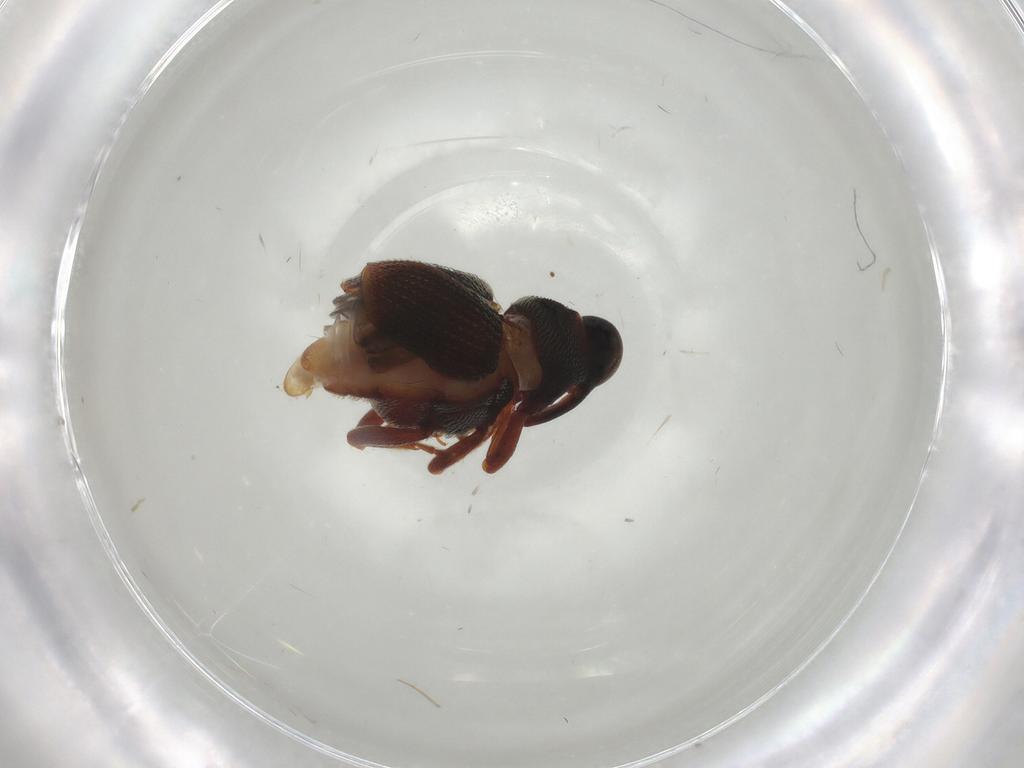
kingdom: Animalia
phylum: Arthropoda
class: Insecta
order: Coleoptera
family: Curculionidae
